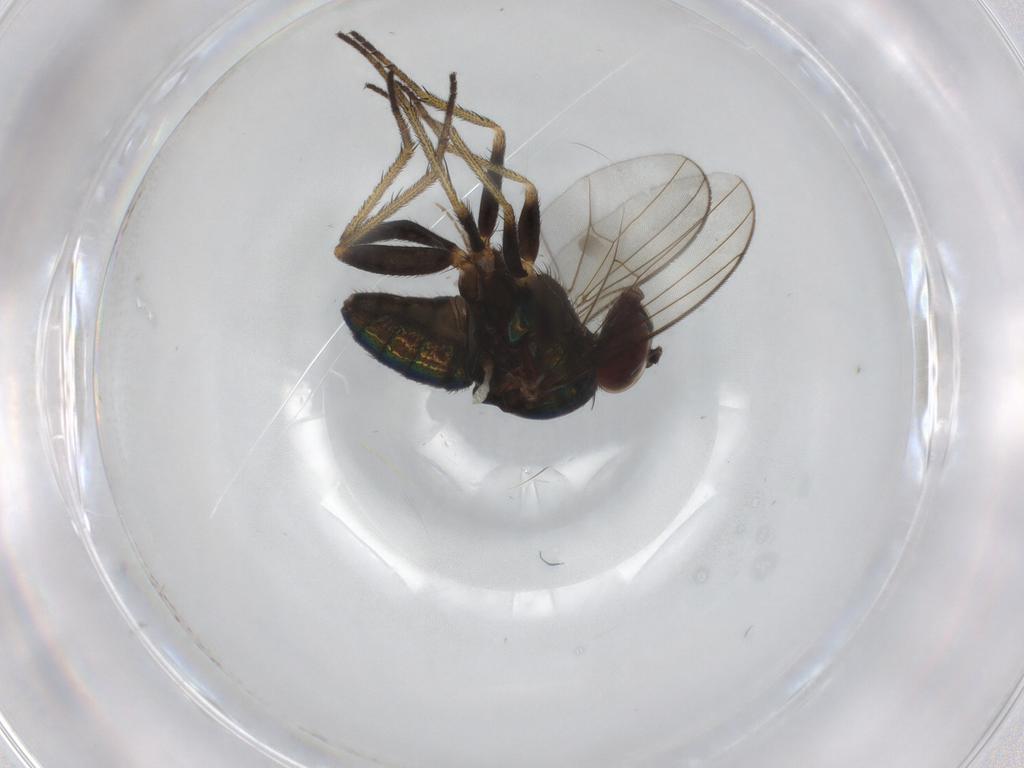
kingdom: Animalia
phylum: Arthropoda
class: Insecta
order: Diptera
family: Dolichopodidae
